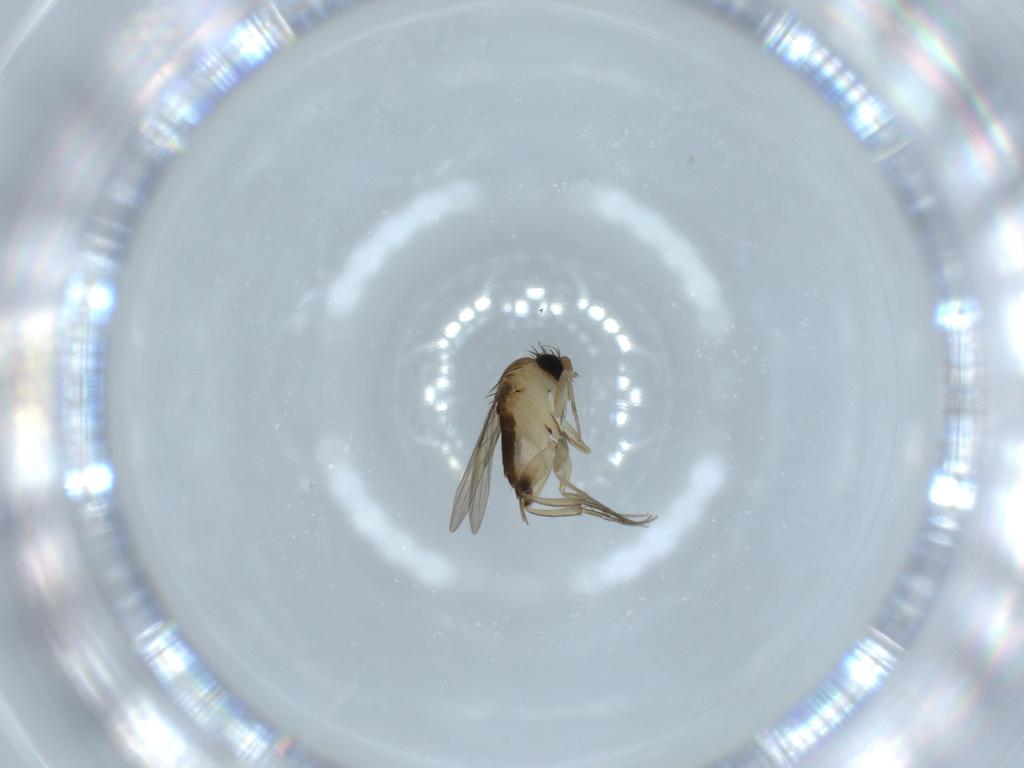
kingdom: Animalia
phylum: Arthropoda
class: Insecta
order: Diptera
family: Phoridae
